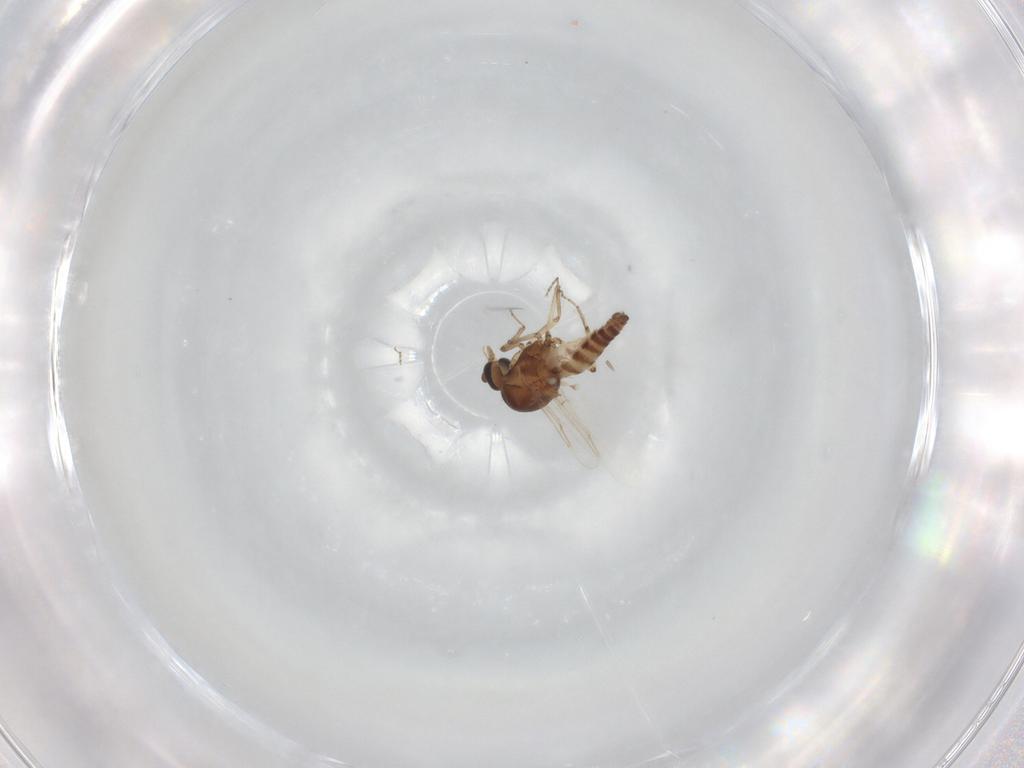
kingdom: Animalia
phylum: Arthropoda
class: Insecta
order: Diptera
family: Ceratopogonidae
